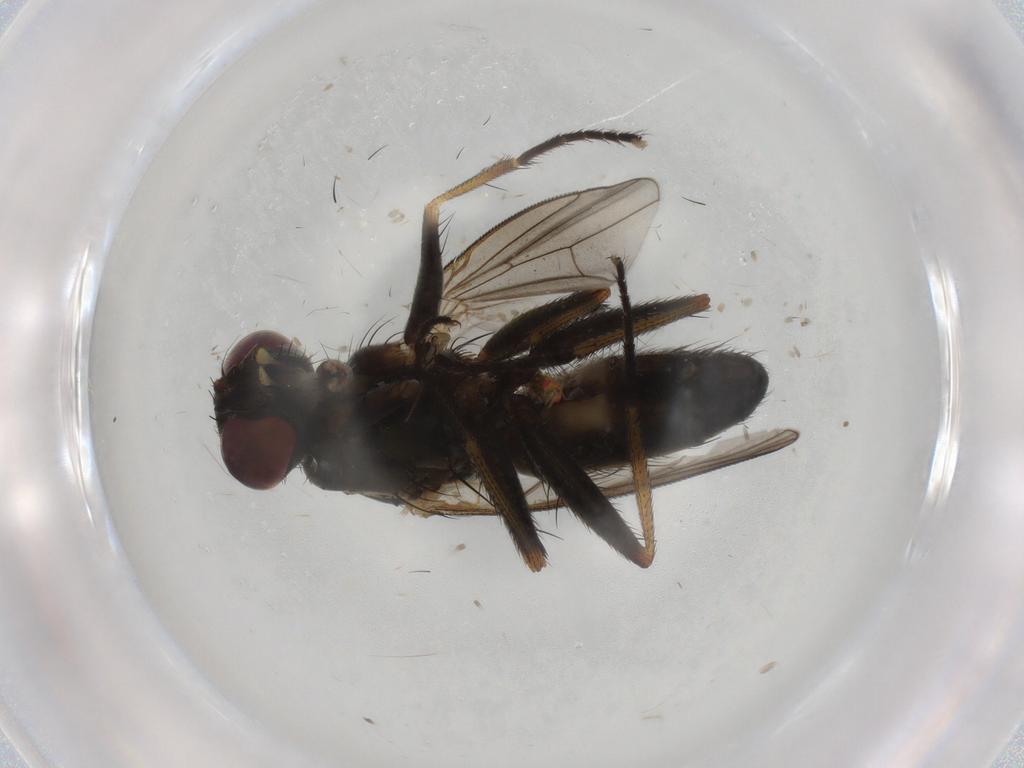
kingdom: Animalia
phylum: Arthropoda
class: Insecta
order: Diptera
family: Muscidae
